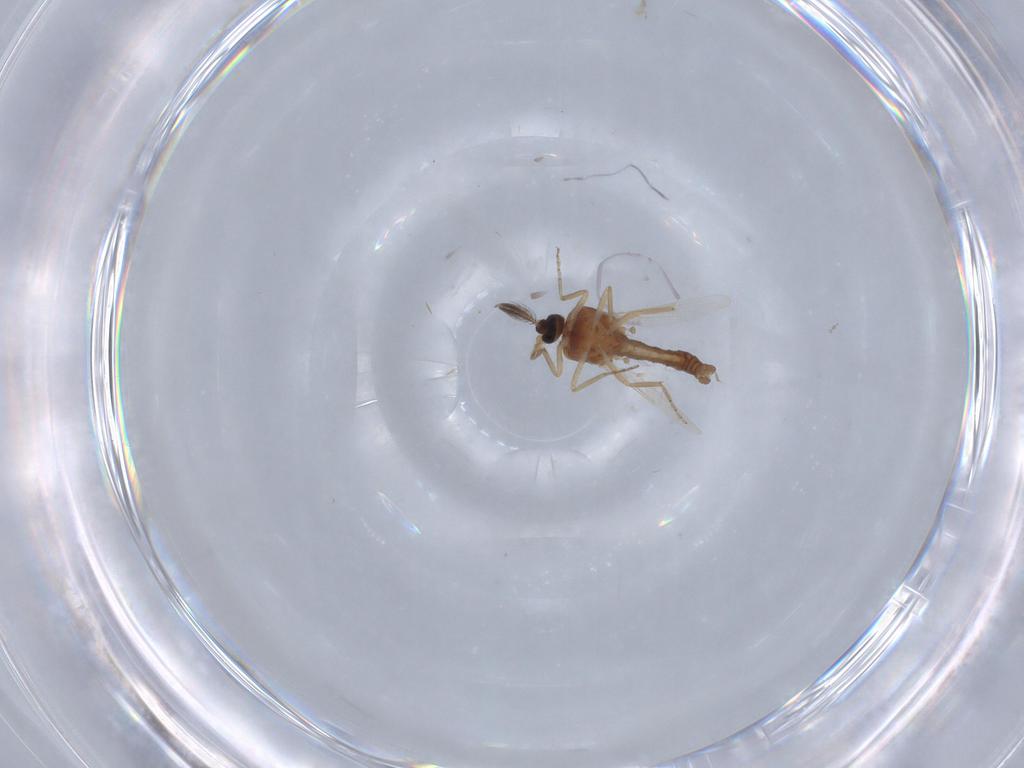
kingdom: Animalia
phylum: Arthropoda
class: Insecta
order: Diptera
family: Ceratopogonidae
